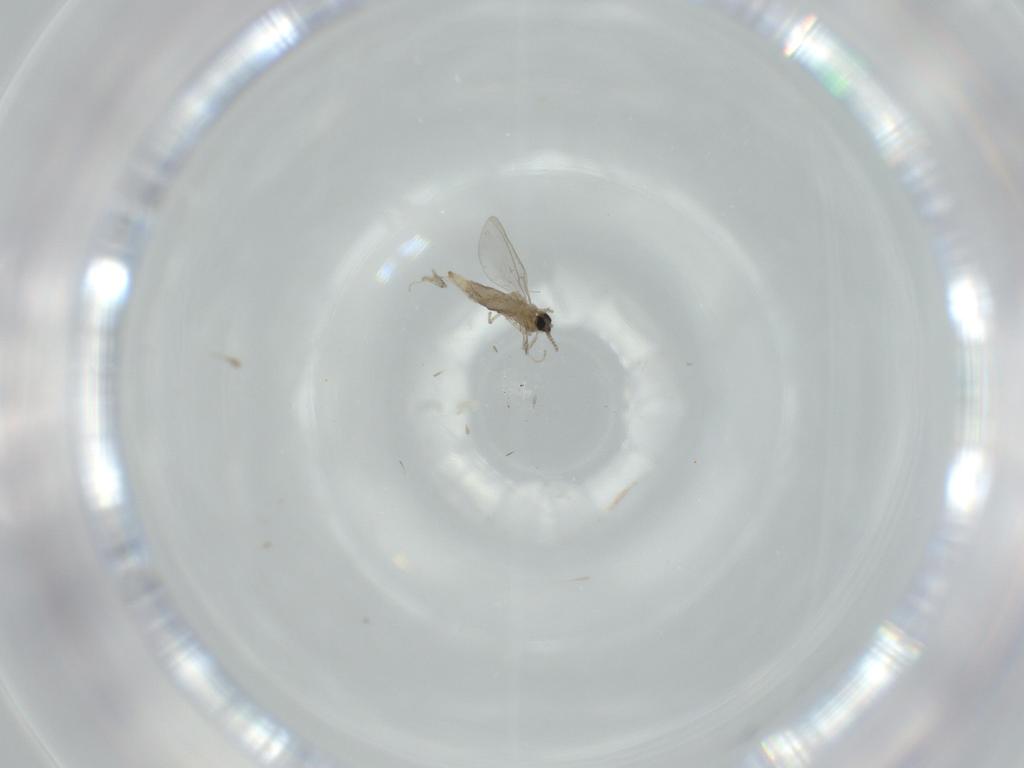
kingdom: Animalia
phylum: Arthropoda
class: Insecta
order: Diptera
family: Cecidomyiidae
